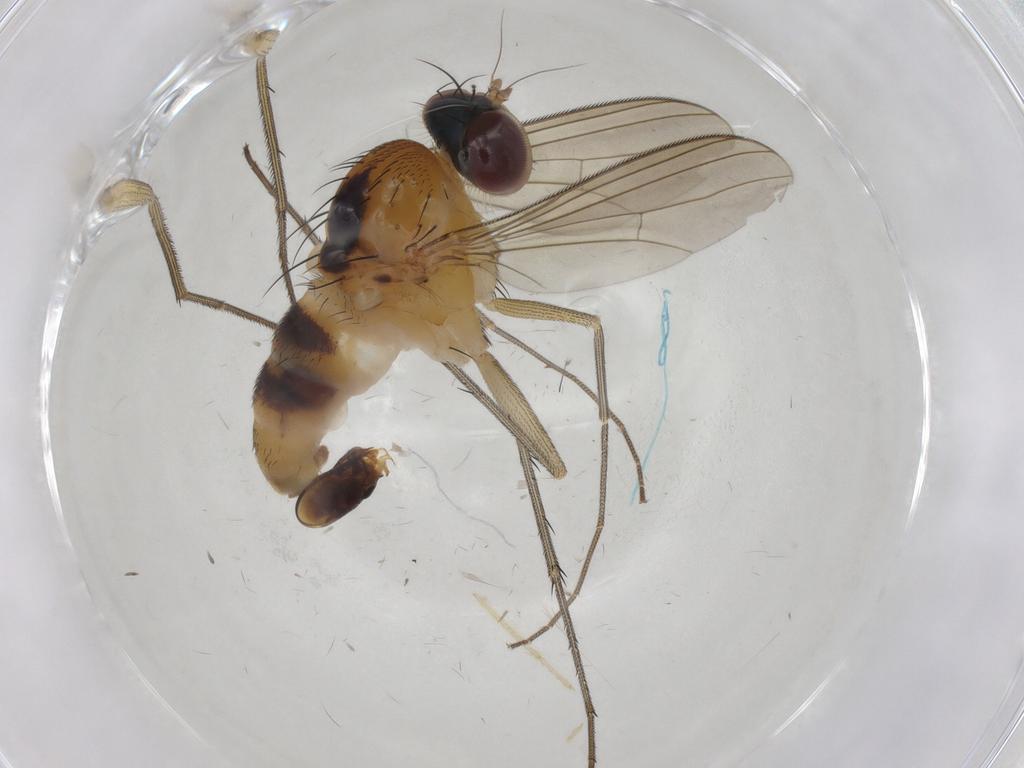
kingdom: Animalia
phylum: Arthropoda
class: Insecta
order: Diptera
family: Dolichopodidae
